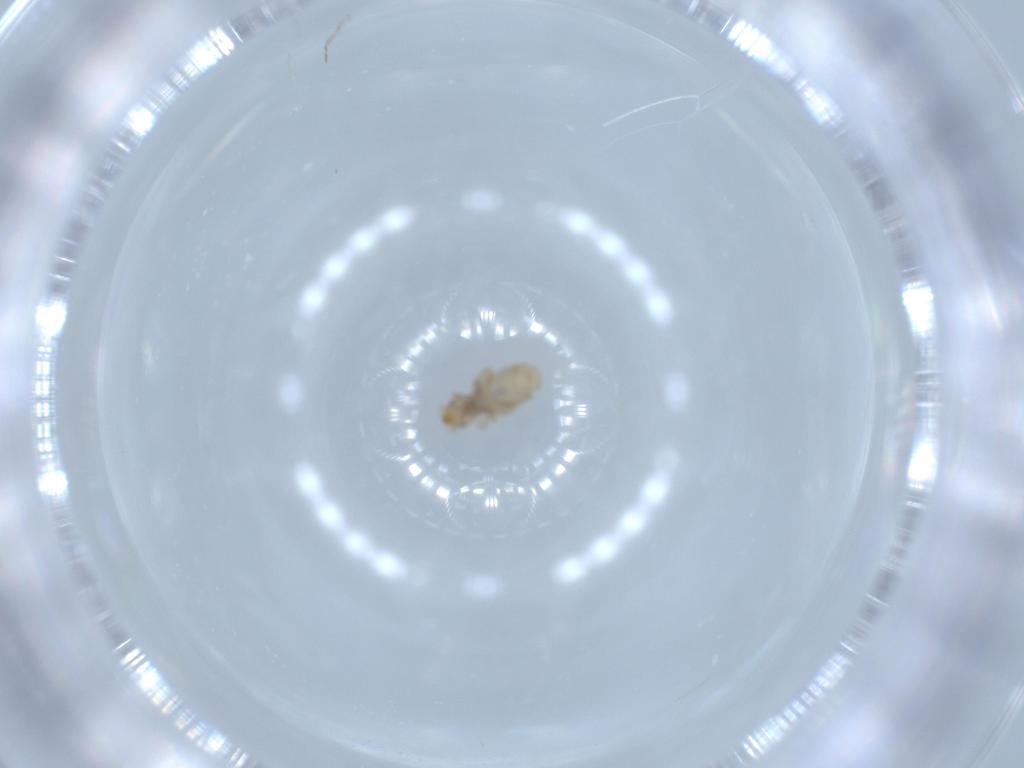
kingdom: Animalia
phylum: Arthropoda
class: Insecta
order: Psocodea
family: Liposcelididae
